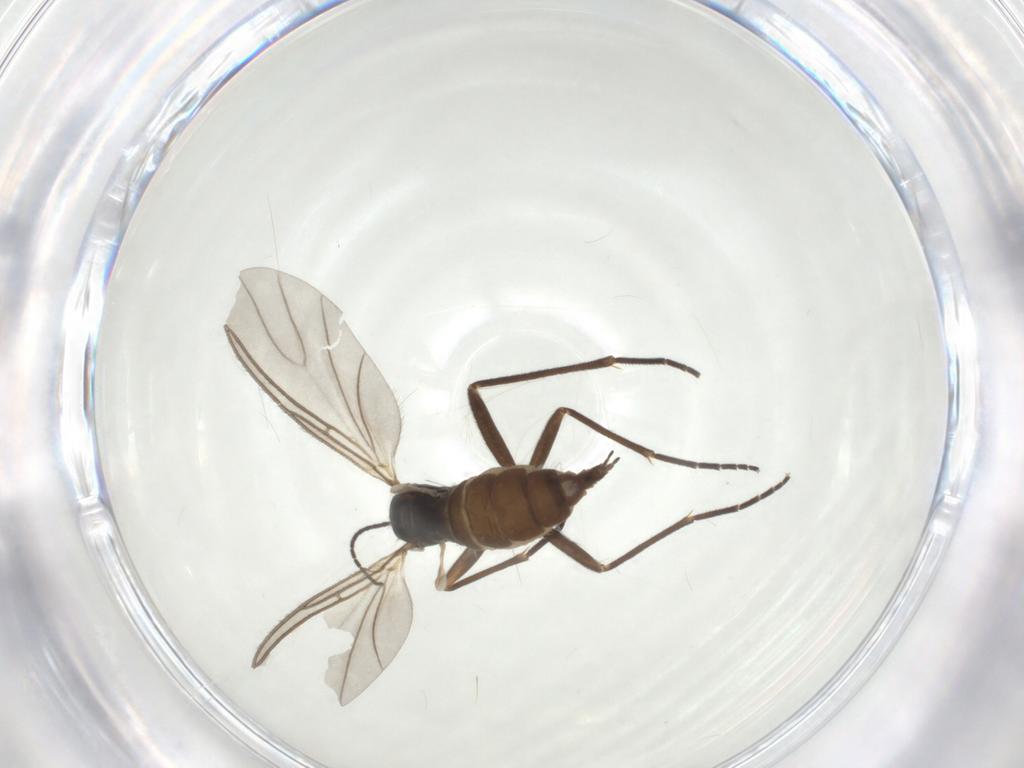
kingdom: Animalia
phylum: Arthropoda
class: Insecta
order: Diptera
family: Sciaridae
